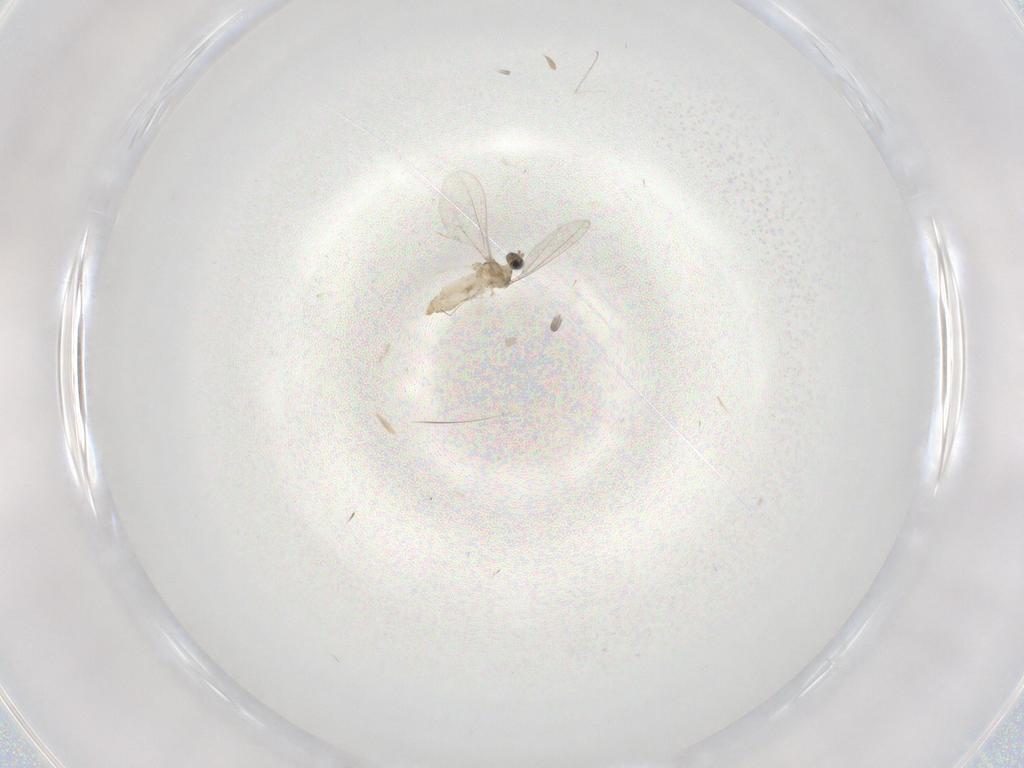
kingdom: Animalia
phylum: Arthropoda
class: Insecta
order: Diptera
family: Cecidomyiidae
